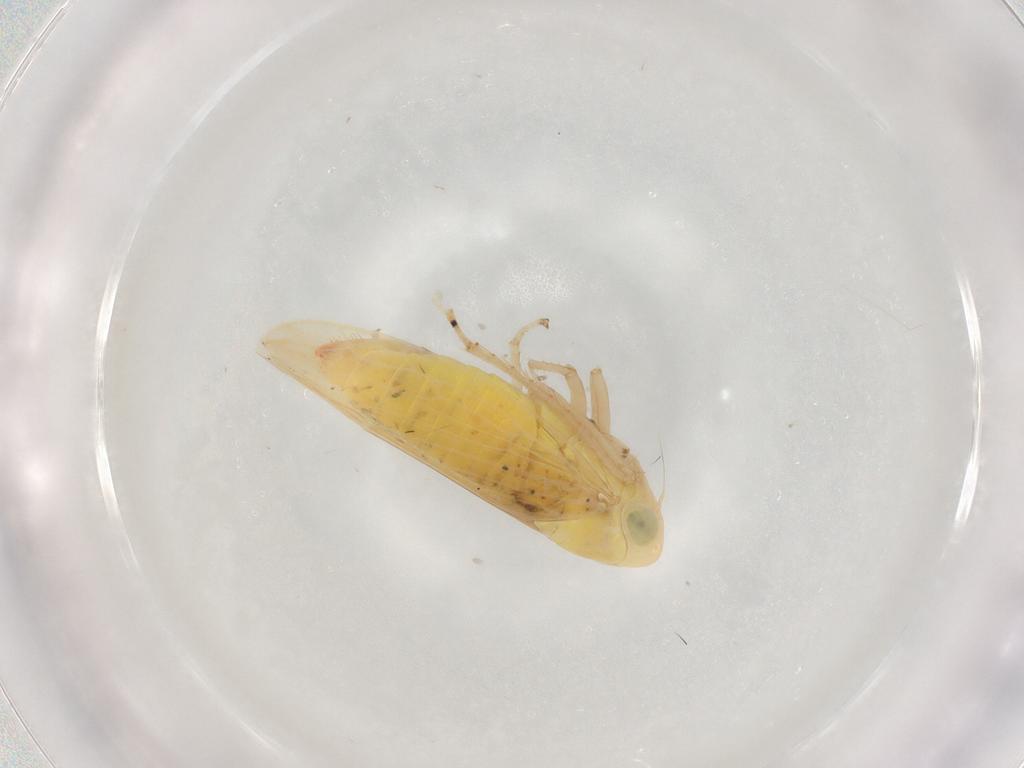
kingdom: Animalia
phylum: Arthropoda
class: Insecta
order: Hemiptera
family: Cicadellidae
